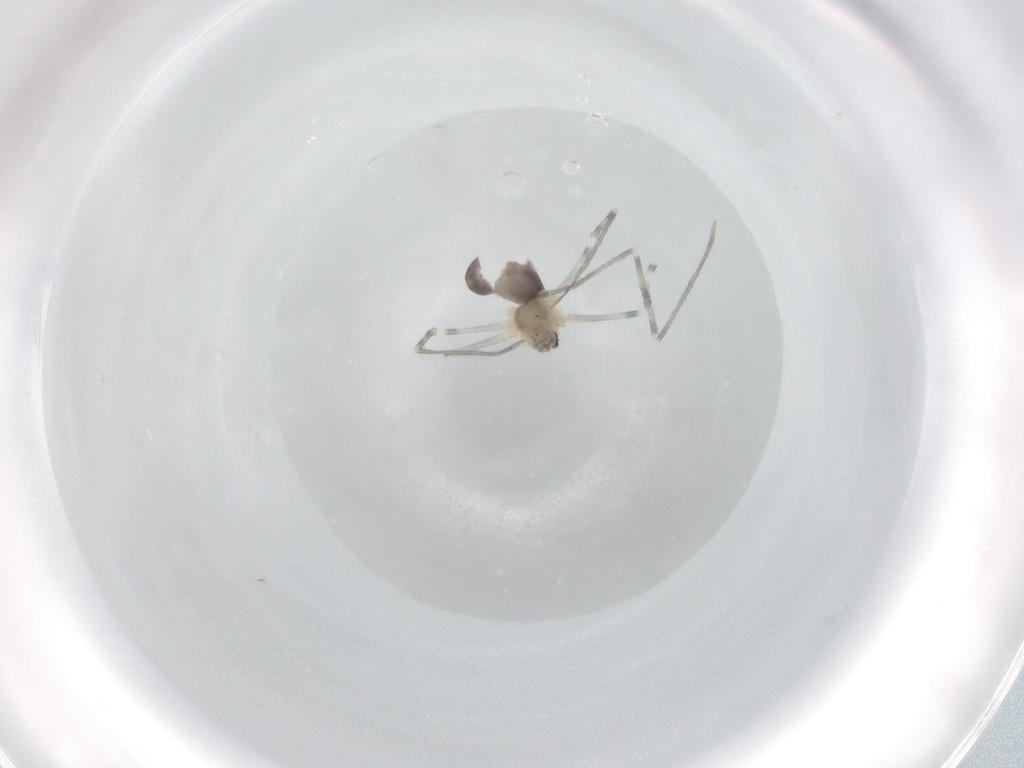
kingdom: Animalia
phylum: Arthropoda
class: Arachnida
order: Araneae
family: Pholcidae
